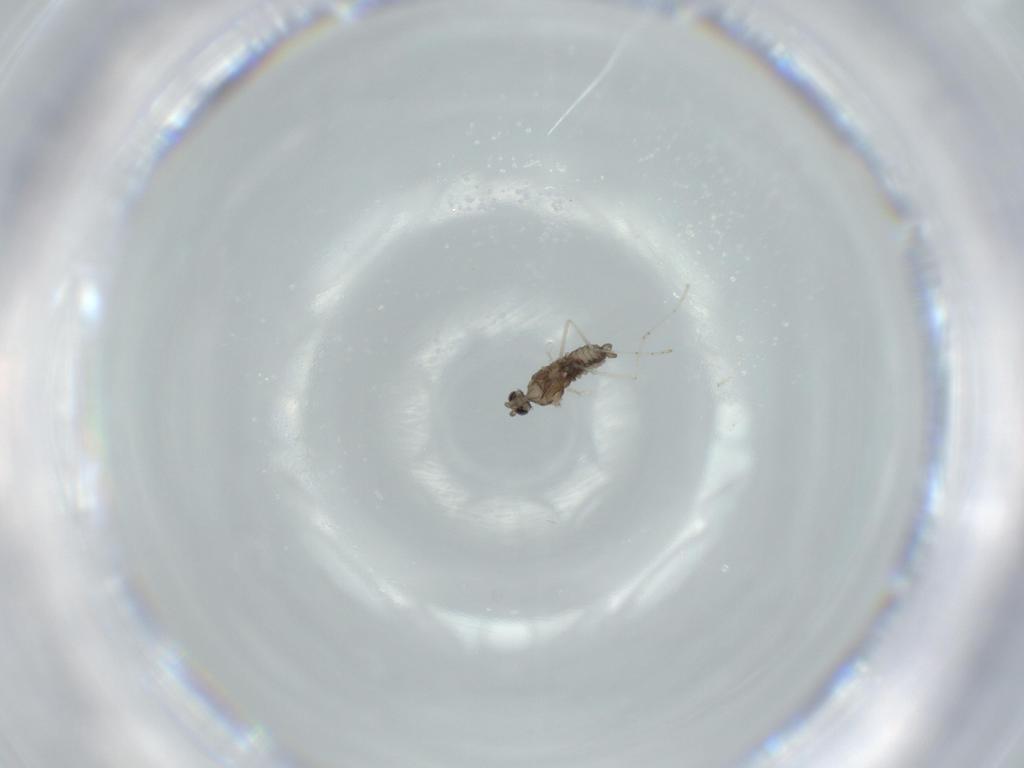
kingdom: Animalia
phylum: Arthropoda
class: Insecta
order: Diptera
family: Cecidomyiidae
